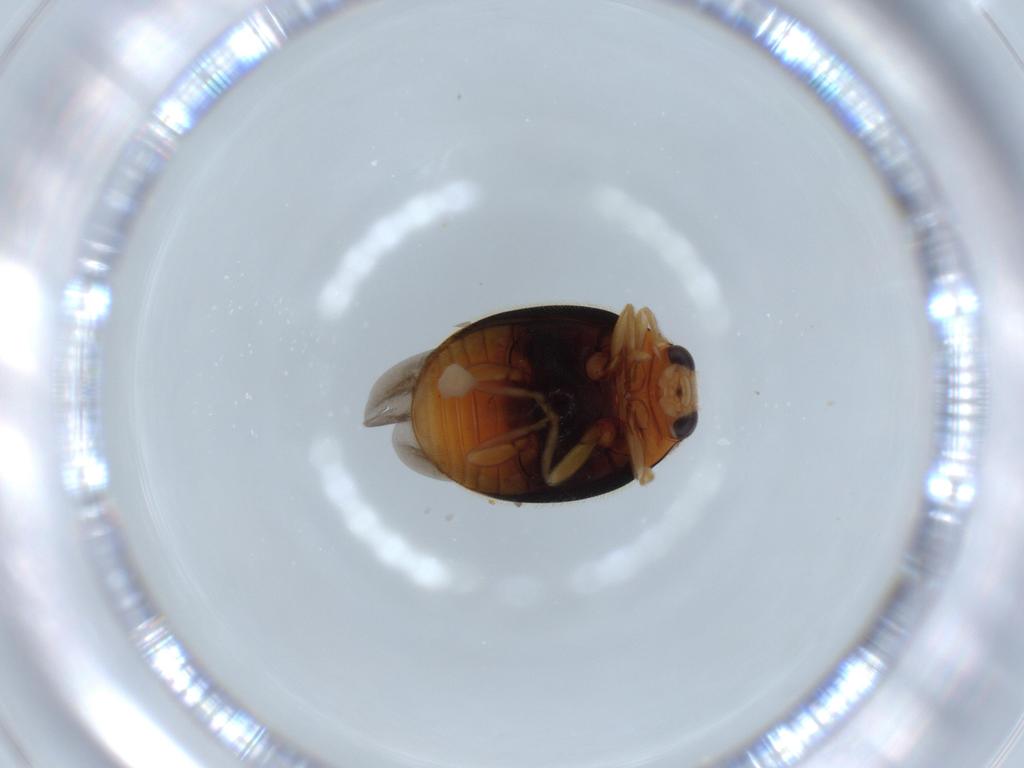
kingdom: Animalia
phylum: Arthropoda
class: Insecta
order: Coleoptera
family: Coccinellidae
